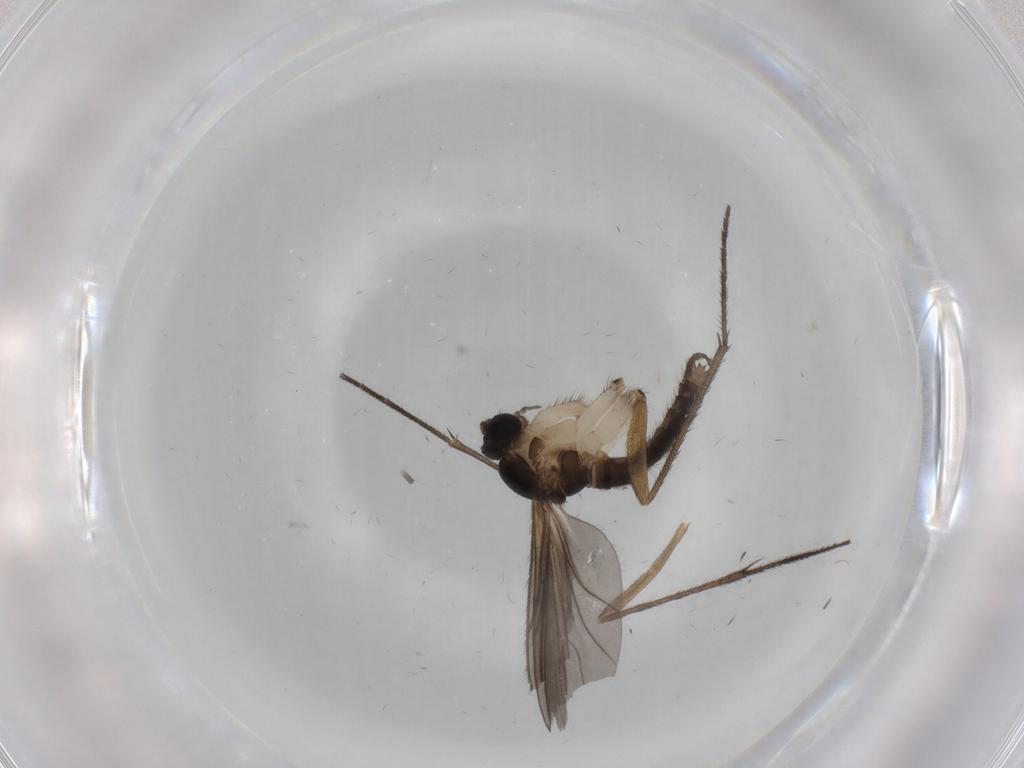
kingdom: Animalia
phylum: Arthropoda
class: Insecta
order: Diptera
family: Sciaridae
